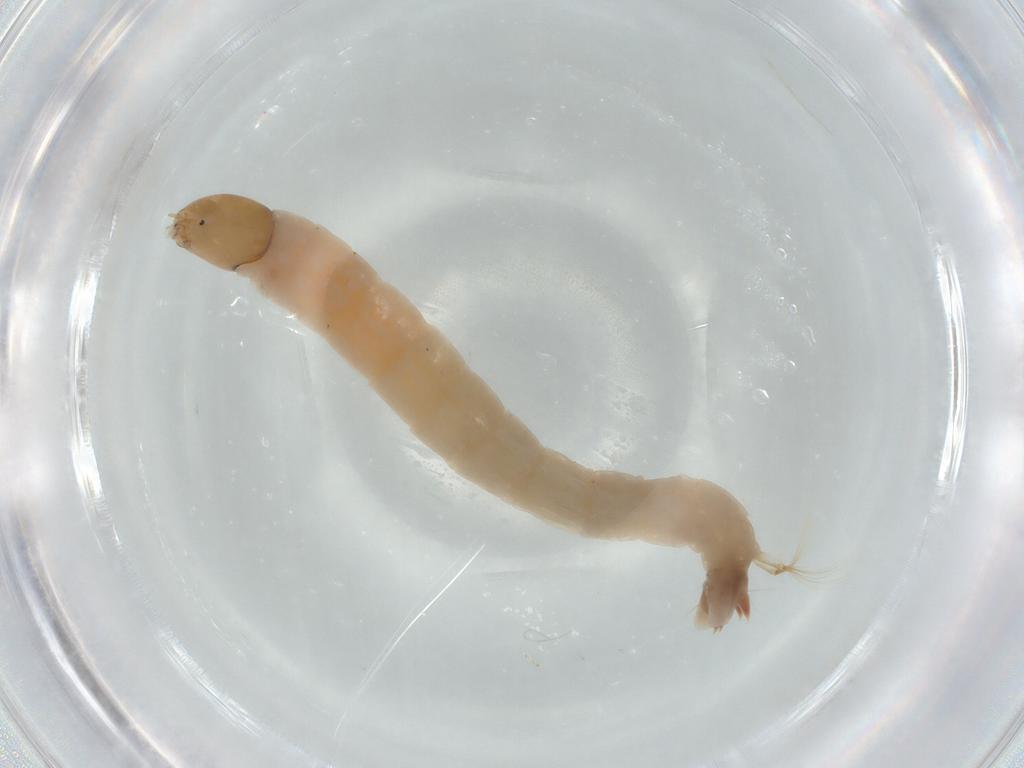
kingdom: Animalia
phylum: Arthropoda
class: Insecta
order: Diptera
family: Chironomidae
